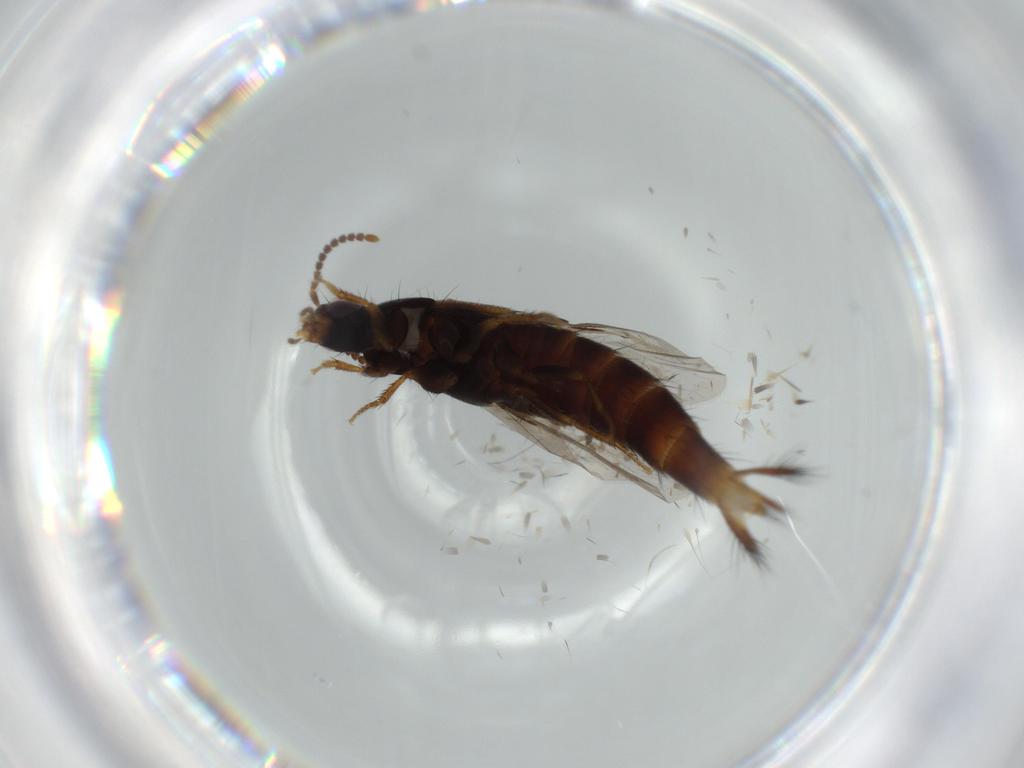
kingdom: Animalia
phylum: Arthropoda
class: Insecta
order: Coleoptera
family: Staphylinidae
